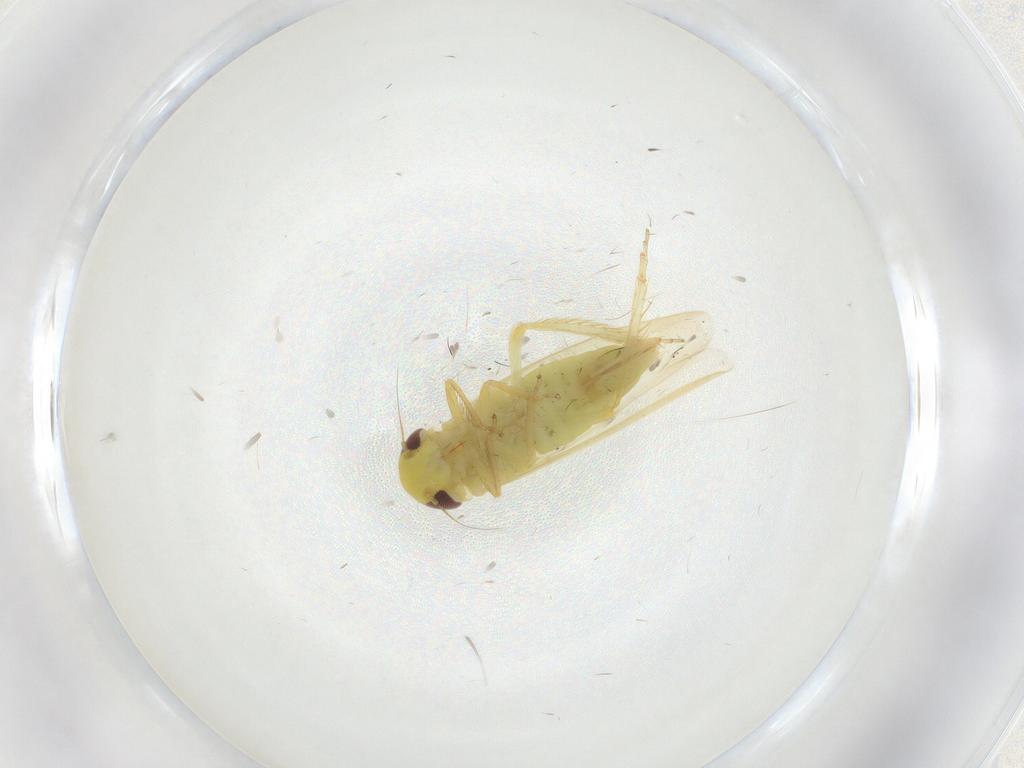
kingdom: Animalia
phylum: Arthropoda
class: Insecta
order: Hemiptera
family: Cicadellidae
